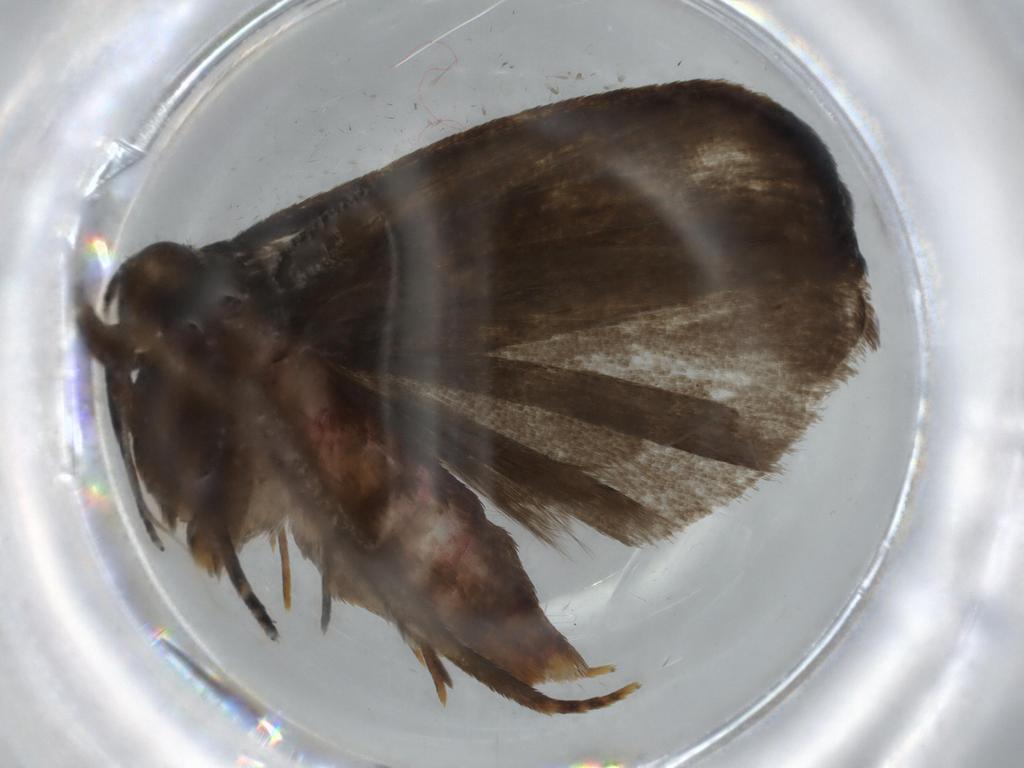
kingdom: Animalia
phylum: Arthropoda
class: Insecta
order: Lepidoptera
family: Autostichidae
